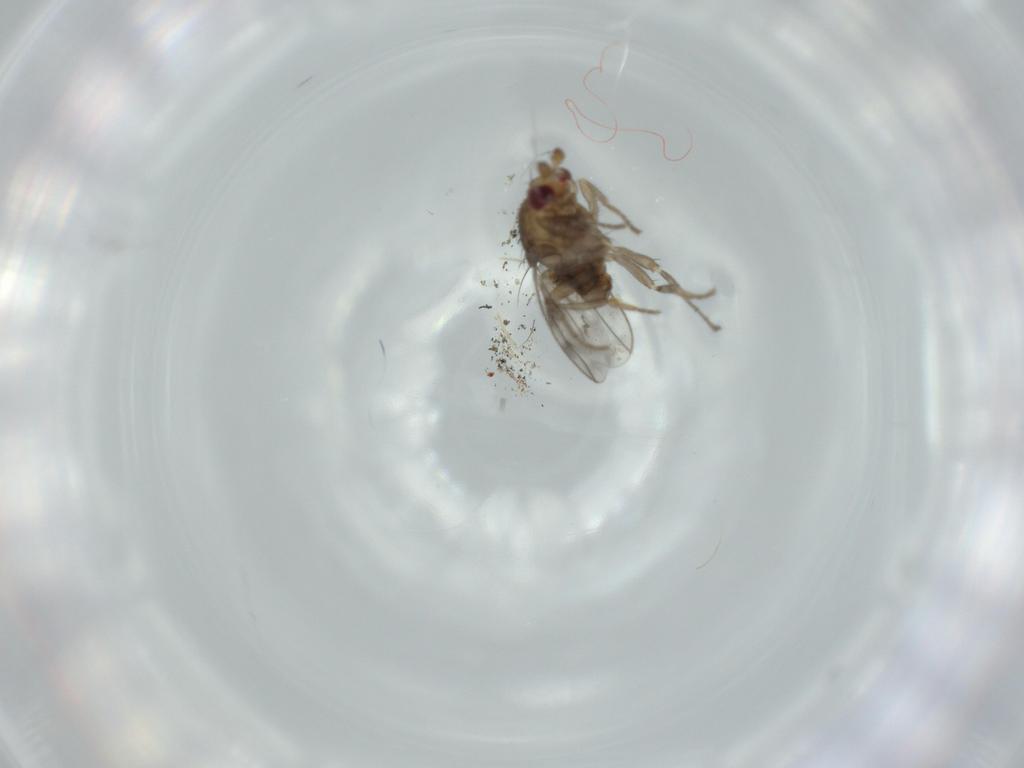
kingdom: Animalia
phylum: Arthropoda
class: Insecta
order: Diptera
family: Sphaeroceridae
